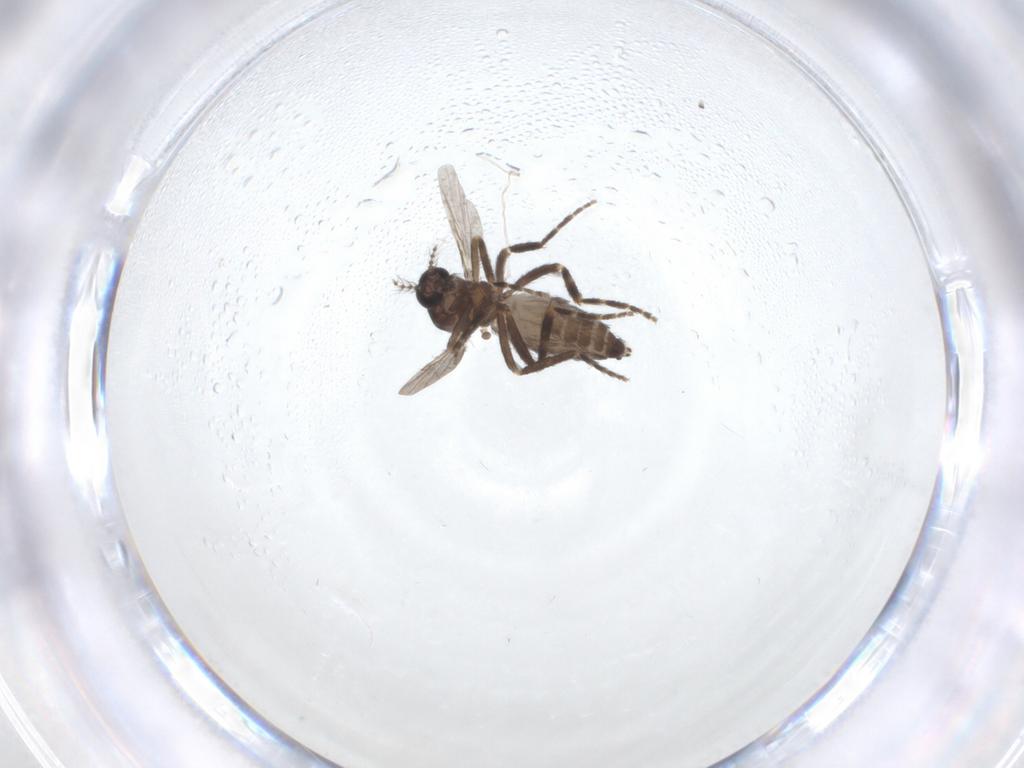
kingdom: Animalia
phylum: Arthropoda
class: Insecta
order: Diptera
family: Ceratopogonidae
